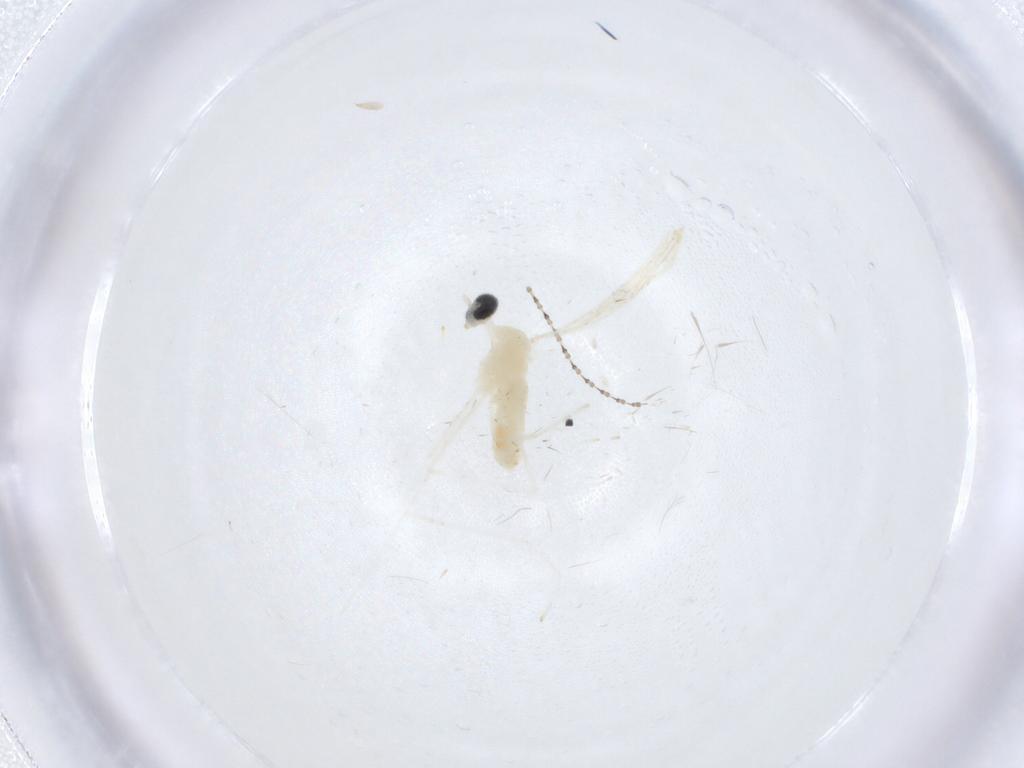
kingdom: Animalia
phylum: Arthropoda
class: Insecta
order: Diptera
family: Cecidomyiidae
